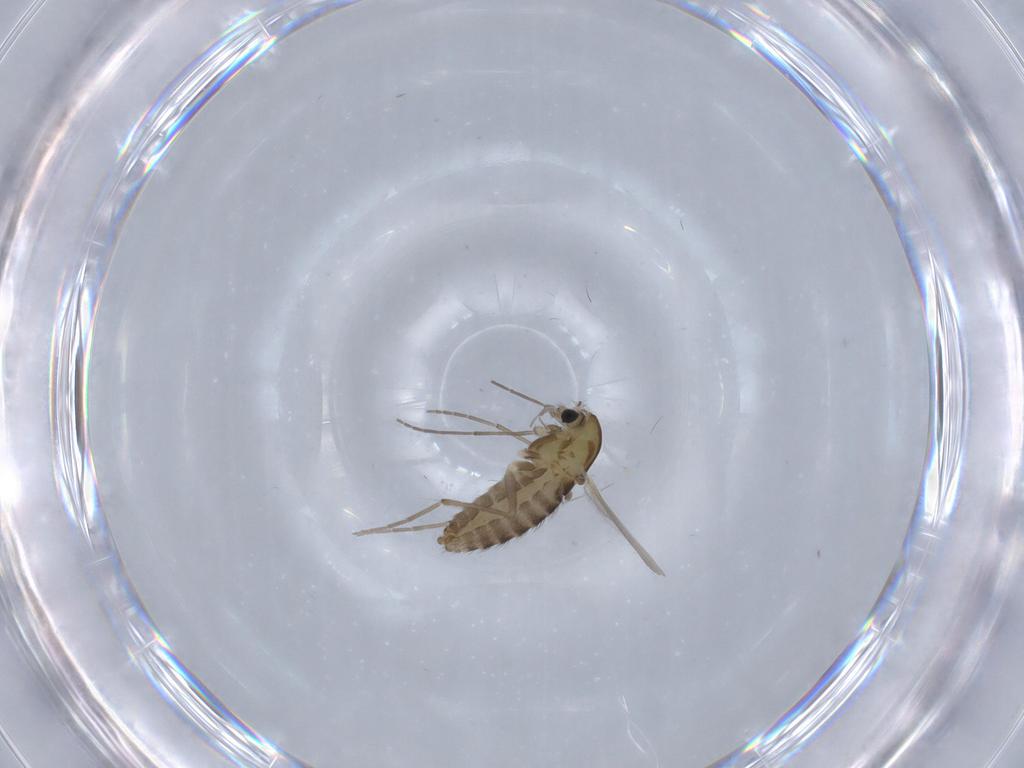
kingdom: Animalia
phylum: Arthropoda
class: Insecta
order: Diptera
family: Chironomidae
